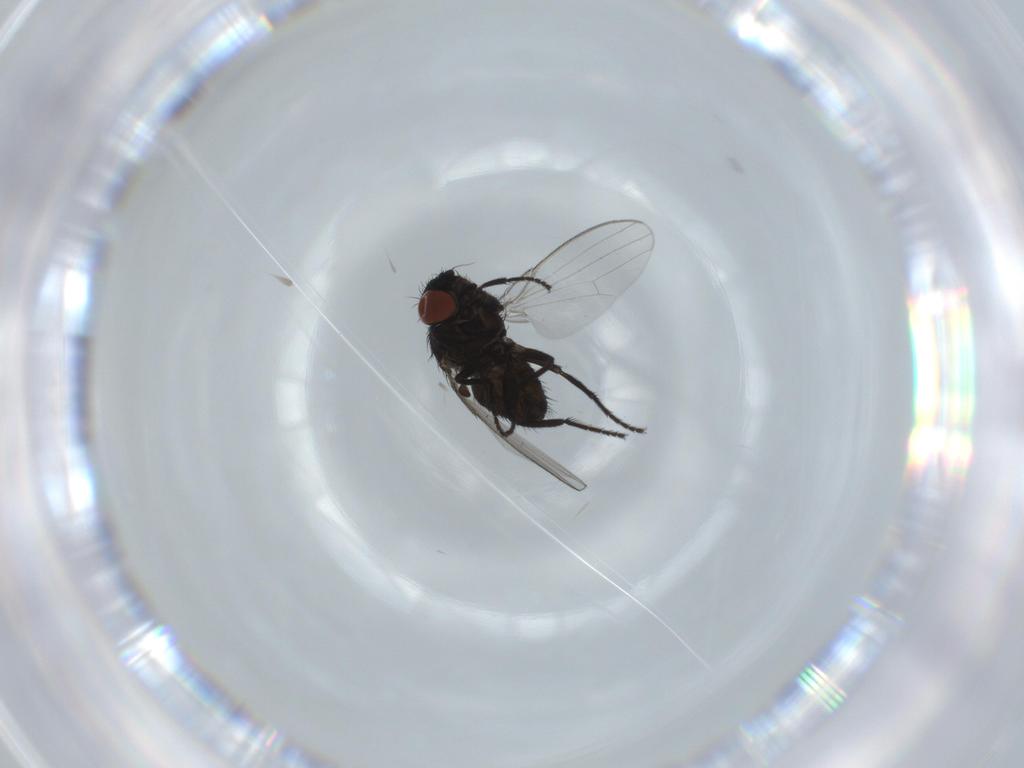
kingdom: Animalia
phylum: Arthropoda
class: Insecta
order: Diptera
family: Milichiidae
